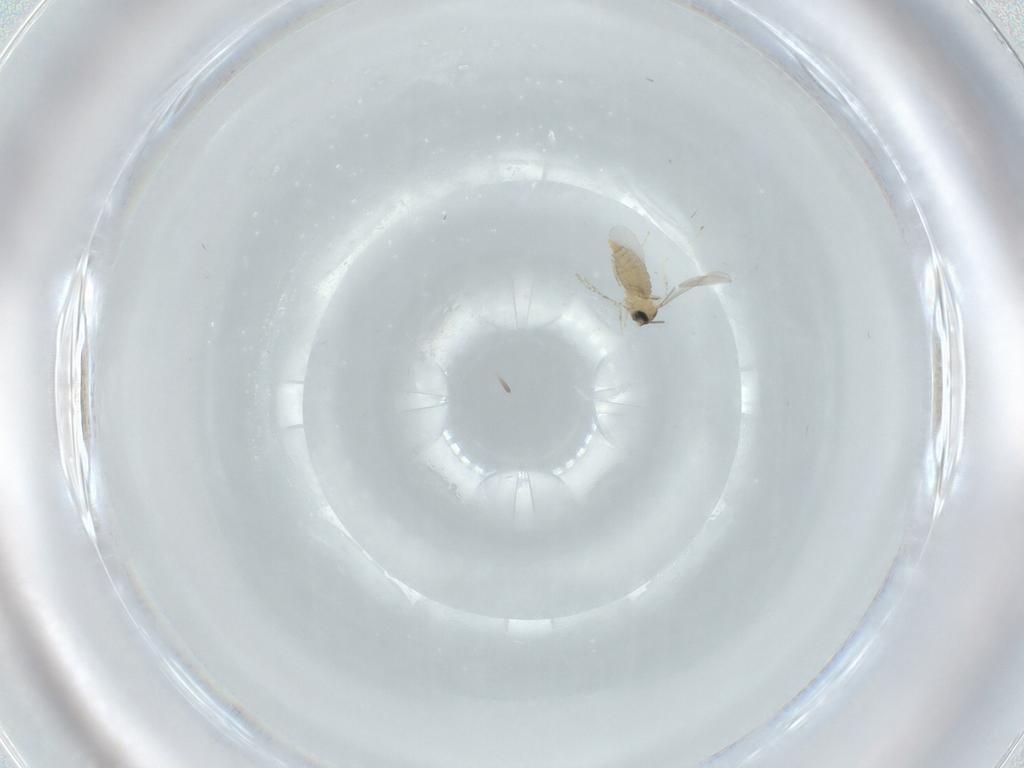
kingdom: Animalia
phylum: Arthropoda
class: Insecta
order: Diptera
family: Cecidomyiidae
